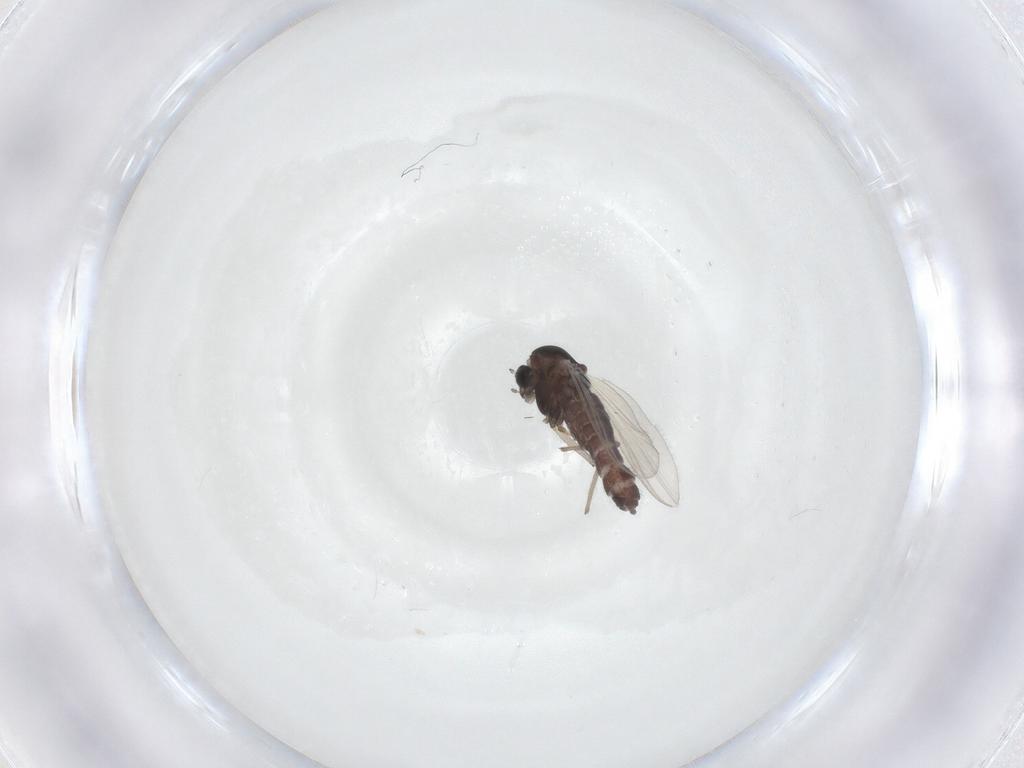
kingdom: Animalia
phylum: Arthropoda
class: Insecta
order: Diptera
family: Chironomidae
